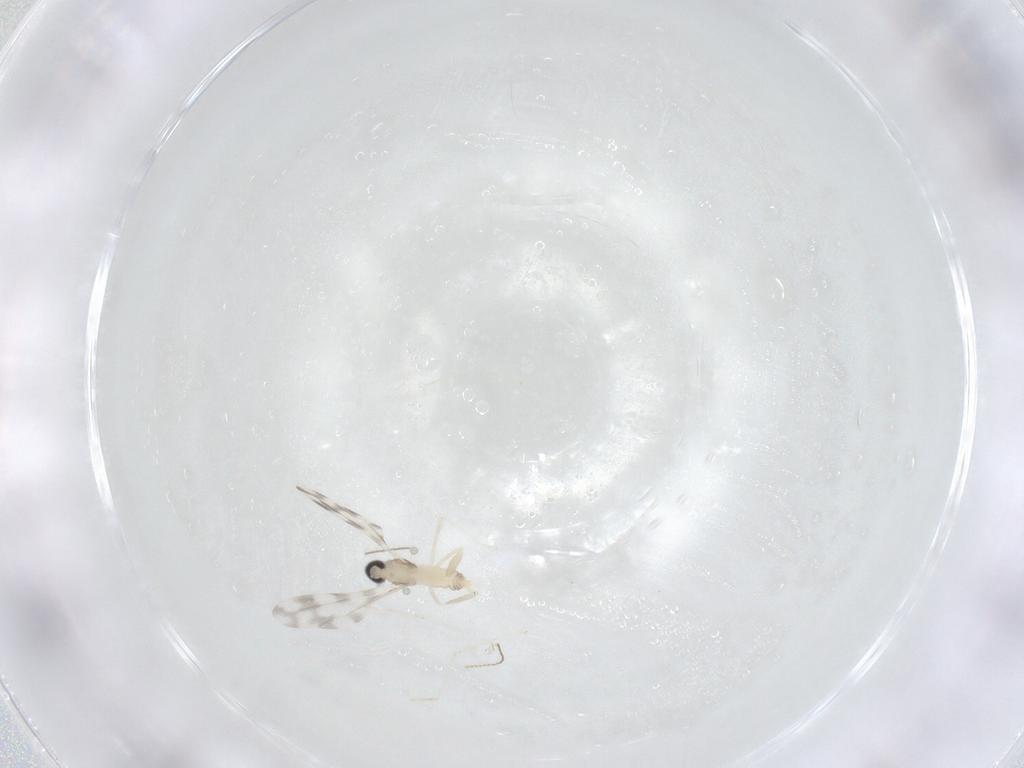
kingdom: Animalia
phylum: Arthropoda
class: Insecta
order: Diptera
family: Cecidomyiidae
